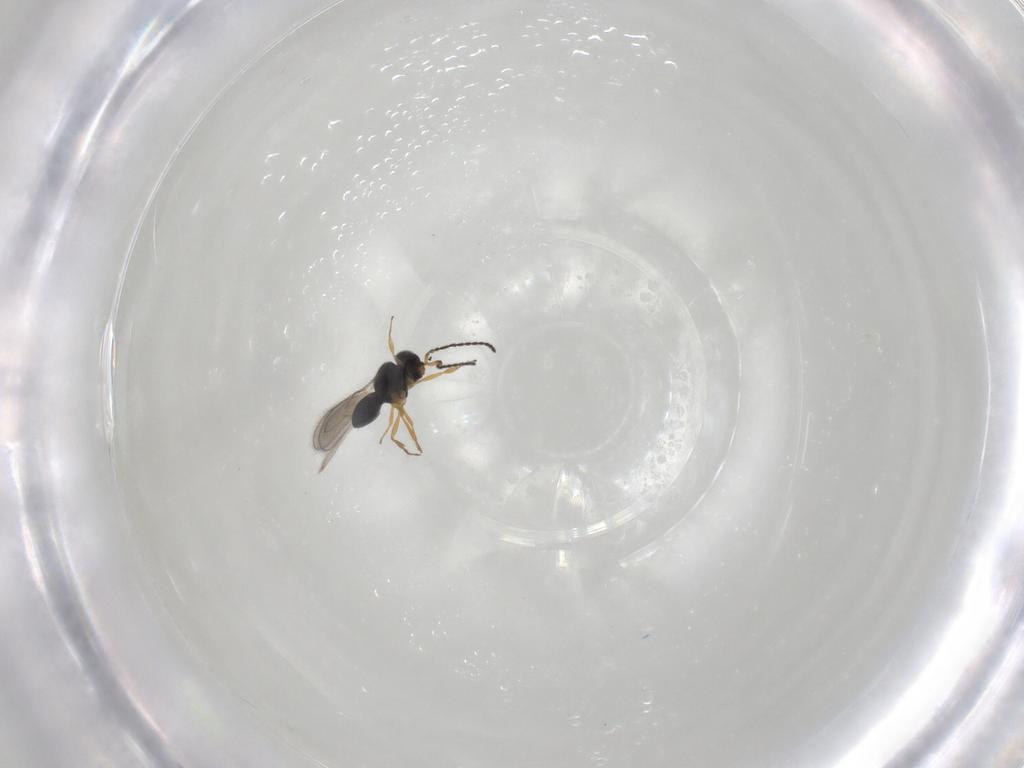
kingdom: Animalia
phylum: Arthropoda
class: Insecta
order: Hymenoptera
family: Scelionidae
